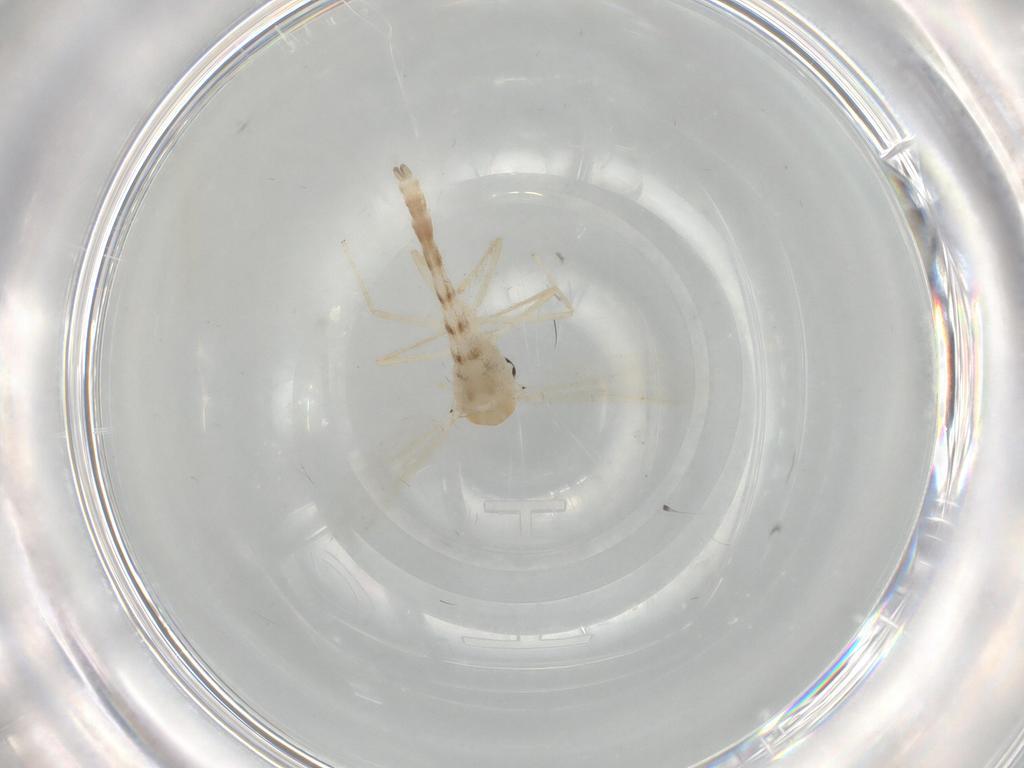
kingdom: Animalia
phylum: Arthropoda
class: Insecta
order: Diptera
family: Chironomidae
